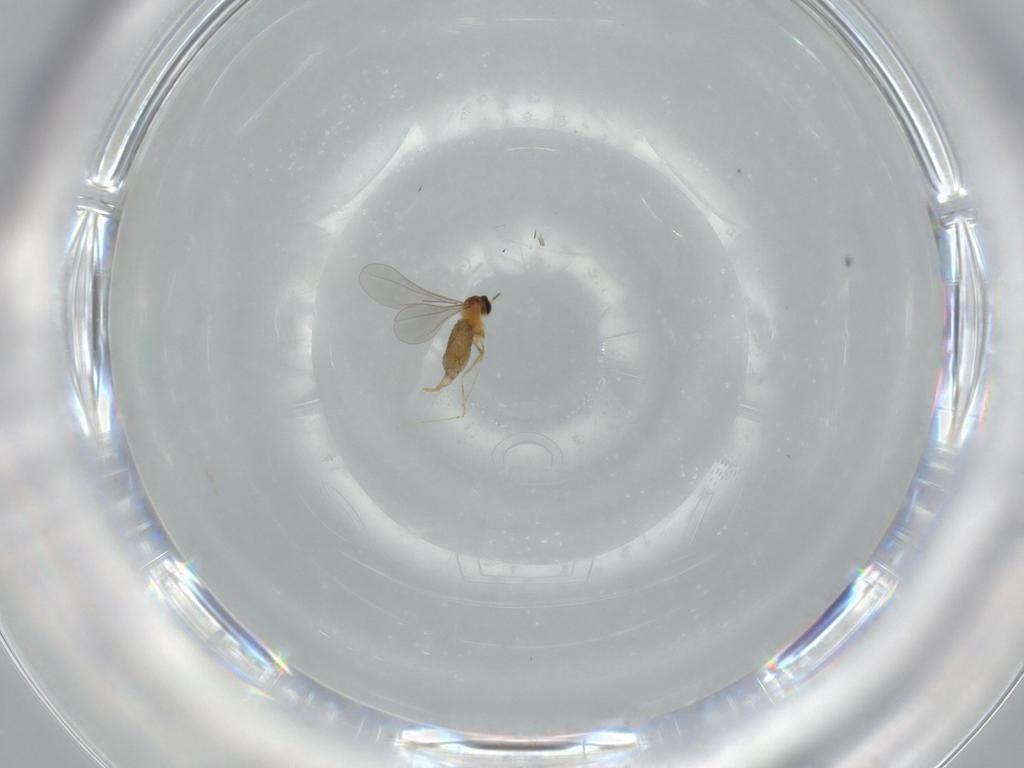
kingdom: Animalia
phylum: Arthropoda
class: Insecta
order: Diptera
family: Cecidomyiidae
